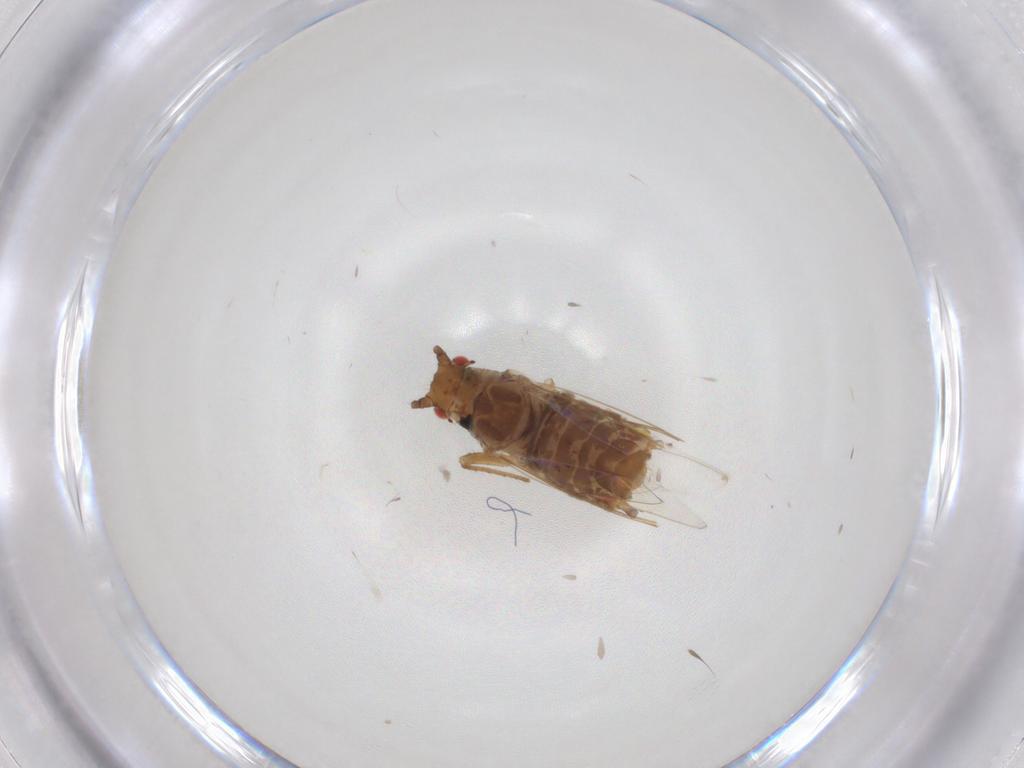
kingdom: Animalia
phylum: Arthropoda
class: Insecta
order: Hemiptera
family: Aphididae
